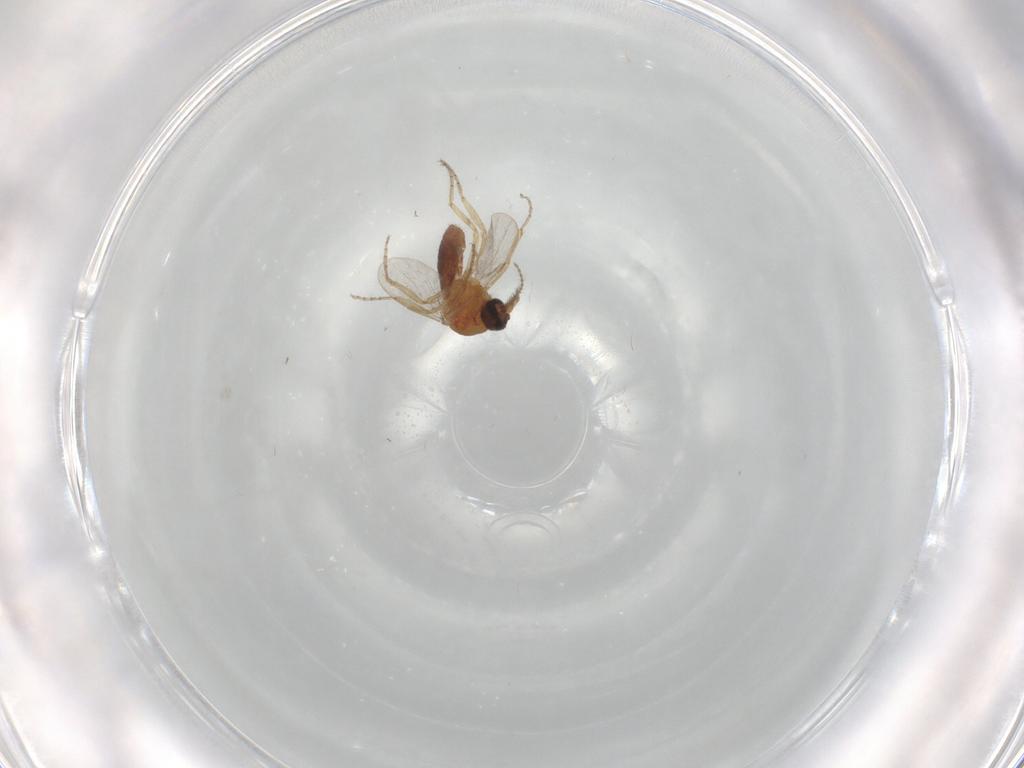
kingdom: Animalia
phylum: Arthropoda
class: Insecta
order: Diptera
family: Ceratopogonidae
